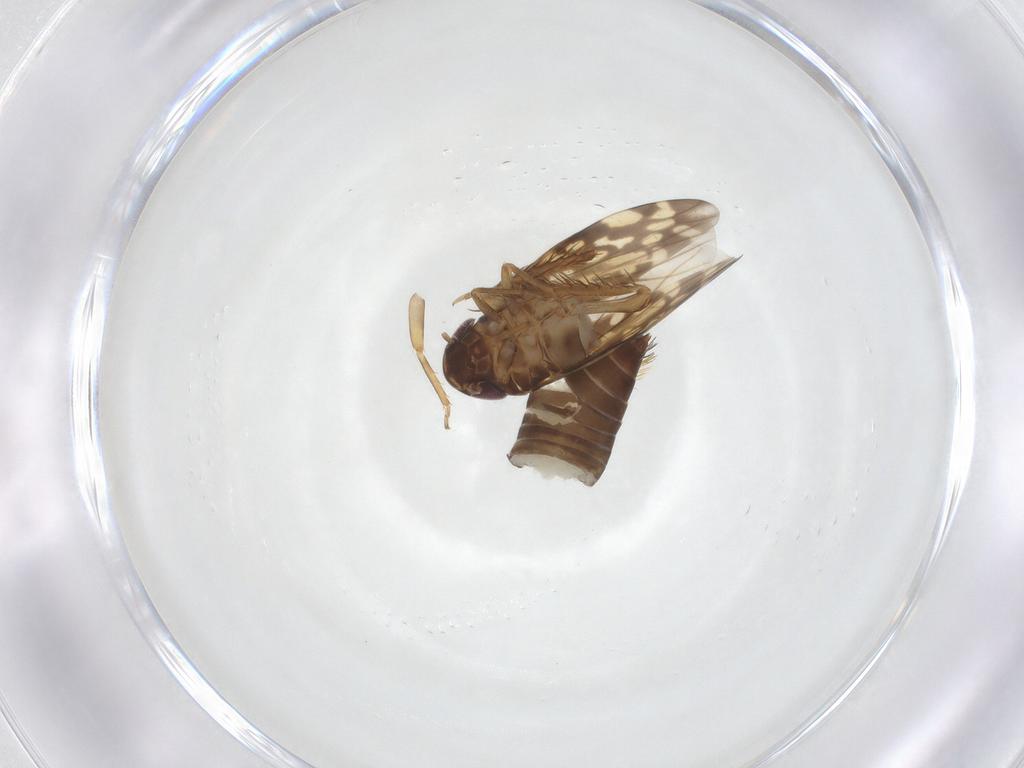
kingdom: Animalia
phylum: Arthropoda
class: Insecta
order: Hemiptera
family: Cicadellidae
